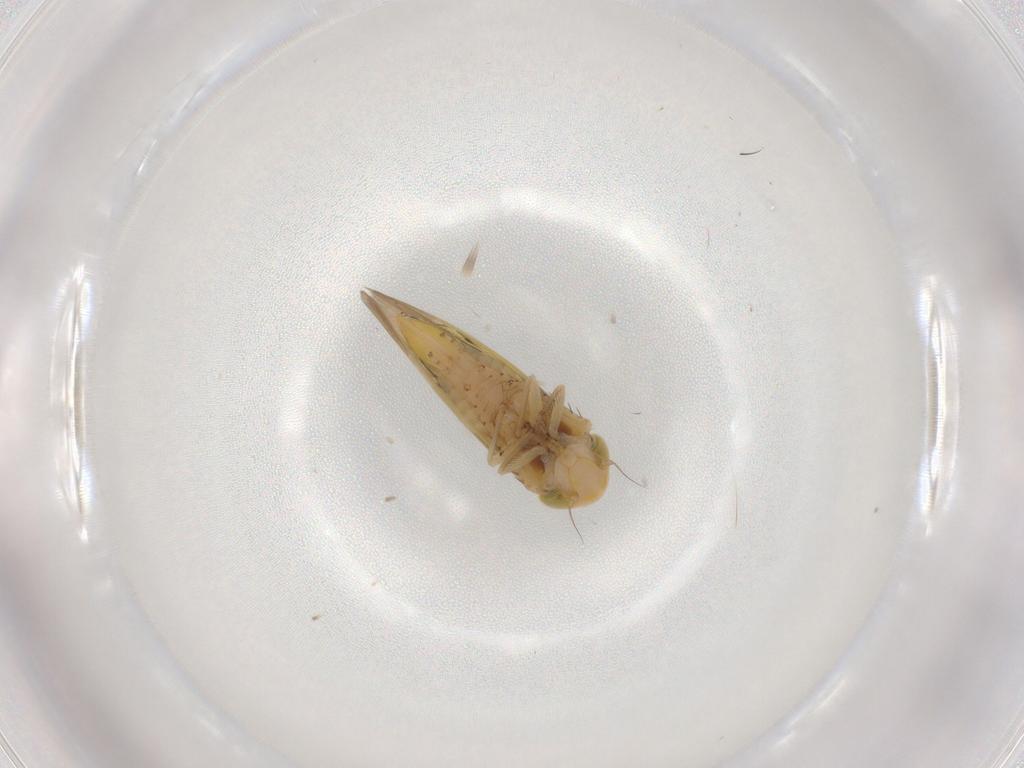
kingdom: Animalia
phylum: Arthropoda
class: Insecta
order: Hemiptera
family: Cicadellidae
